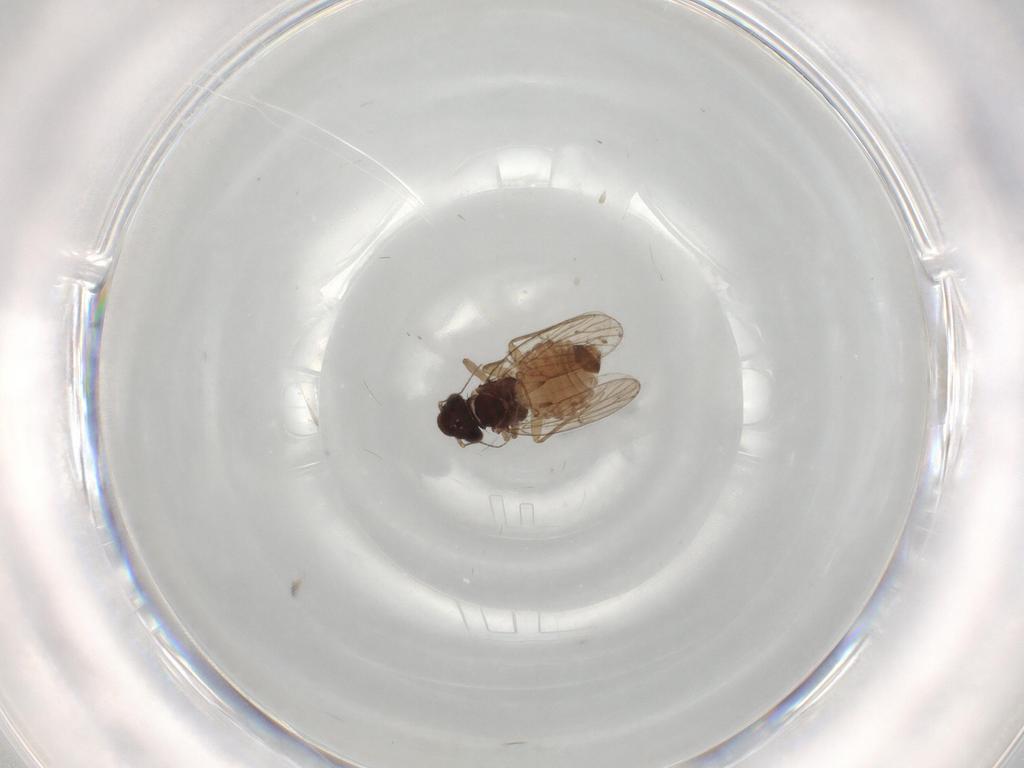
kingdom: Animalia
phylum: Arthropoda
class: Insecta
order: Psocodea
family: Psoquillidae
